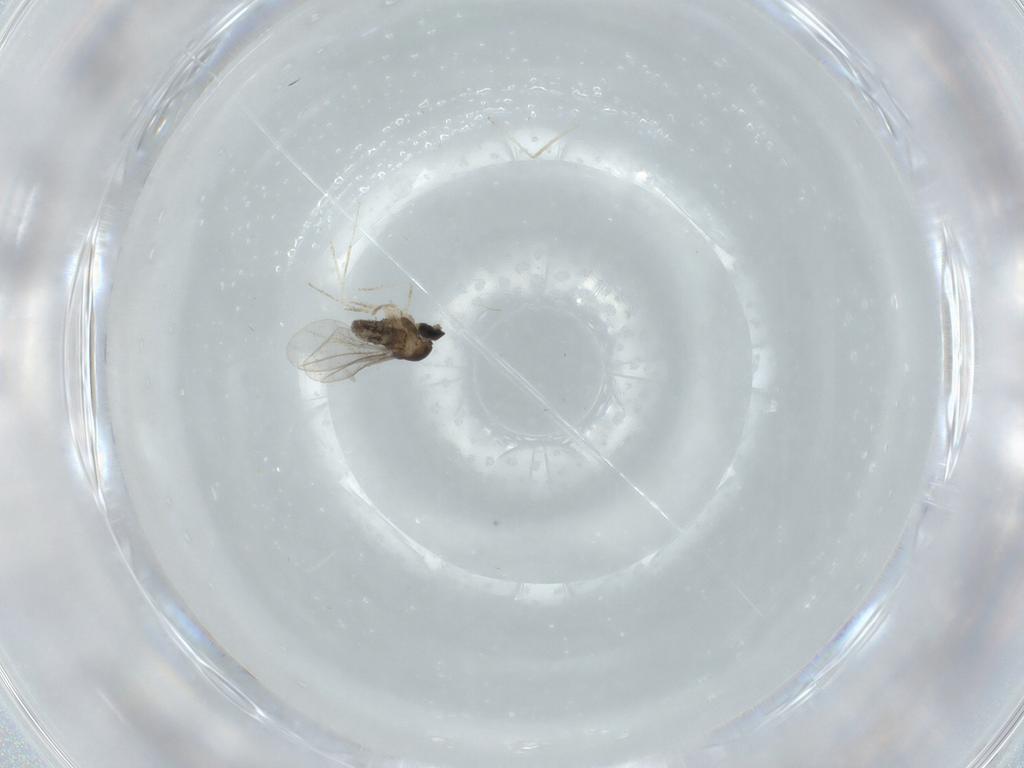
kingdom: Animalia
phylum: Arthropoda
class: Insecta
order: Diptera
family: Cecidomyiidae
